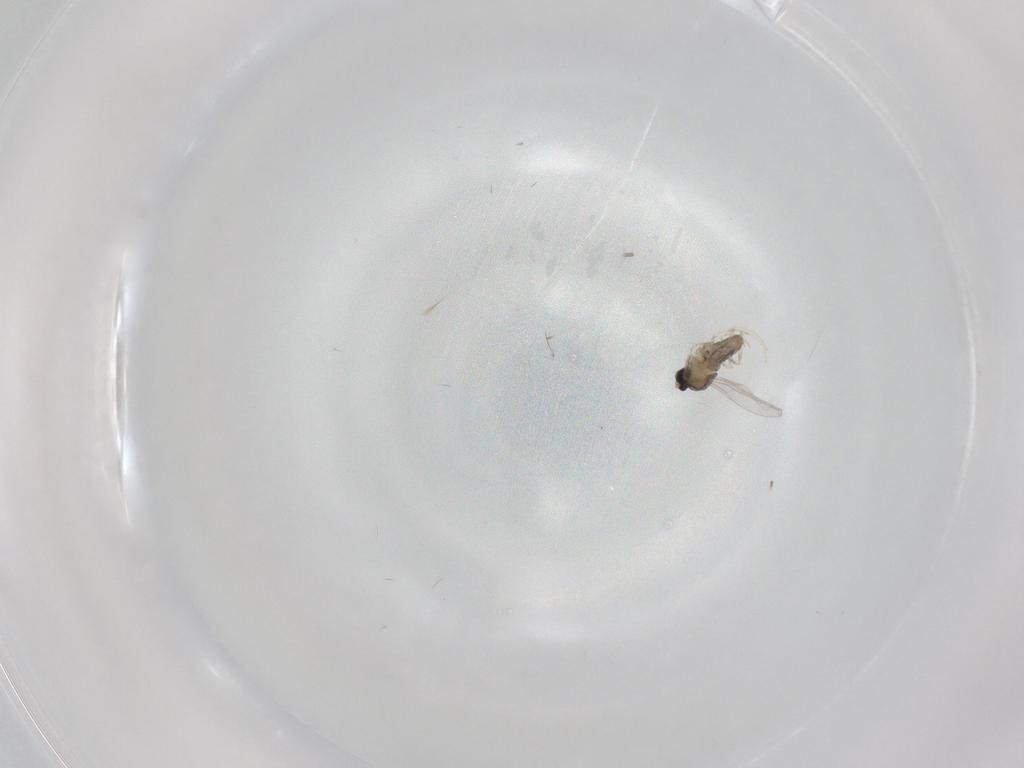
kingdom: Animalia
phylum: Arthropoda
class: Insecta
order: Diptera
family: Cecidomyiidae
